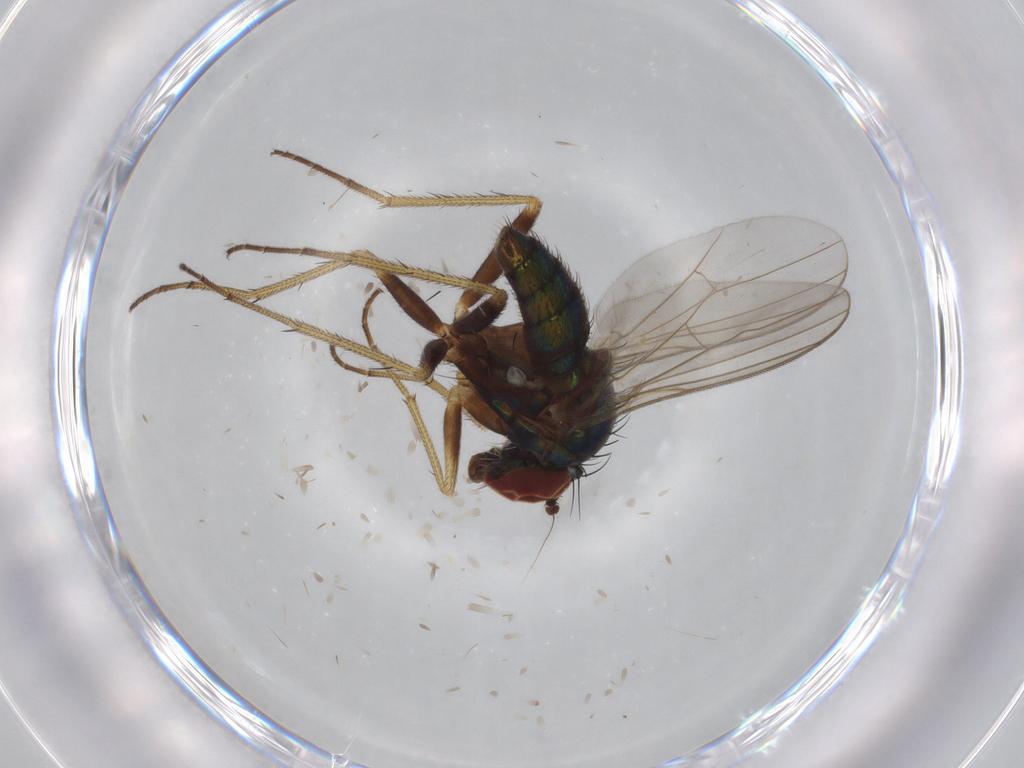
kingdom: Animalia
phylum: Arthropoda
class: Insecta
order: Diptera
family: Dolichopodidae
